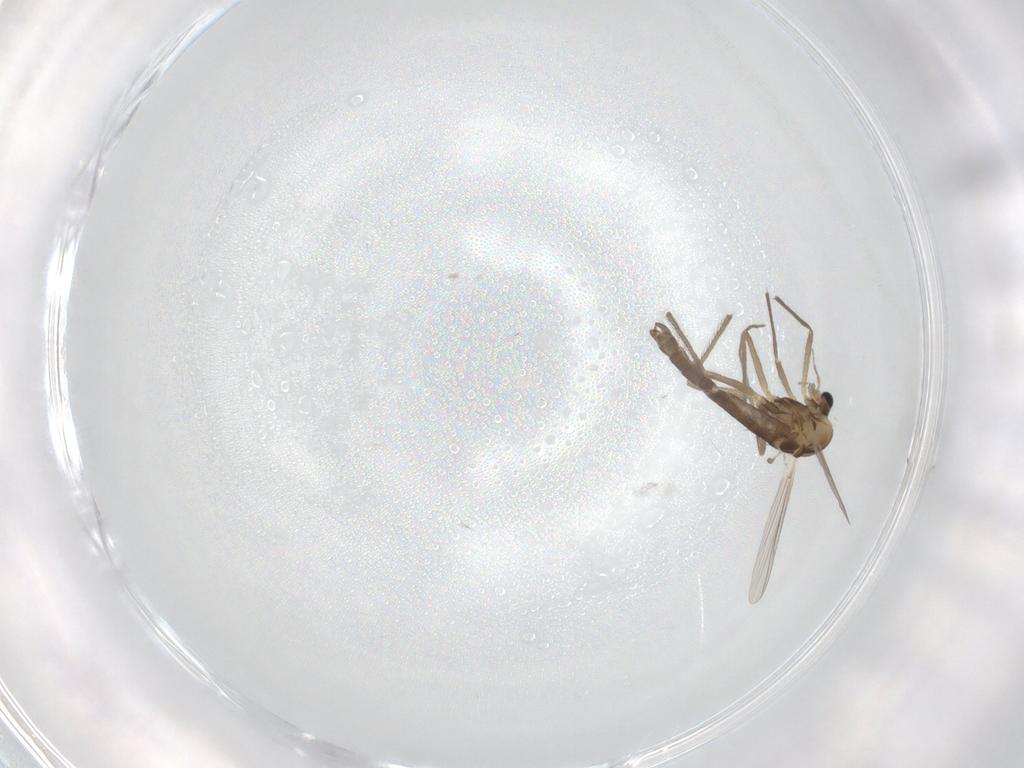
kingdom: Animalia
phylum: Arthropoda
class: Insecta
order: Diptera
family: Chironomidae
